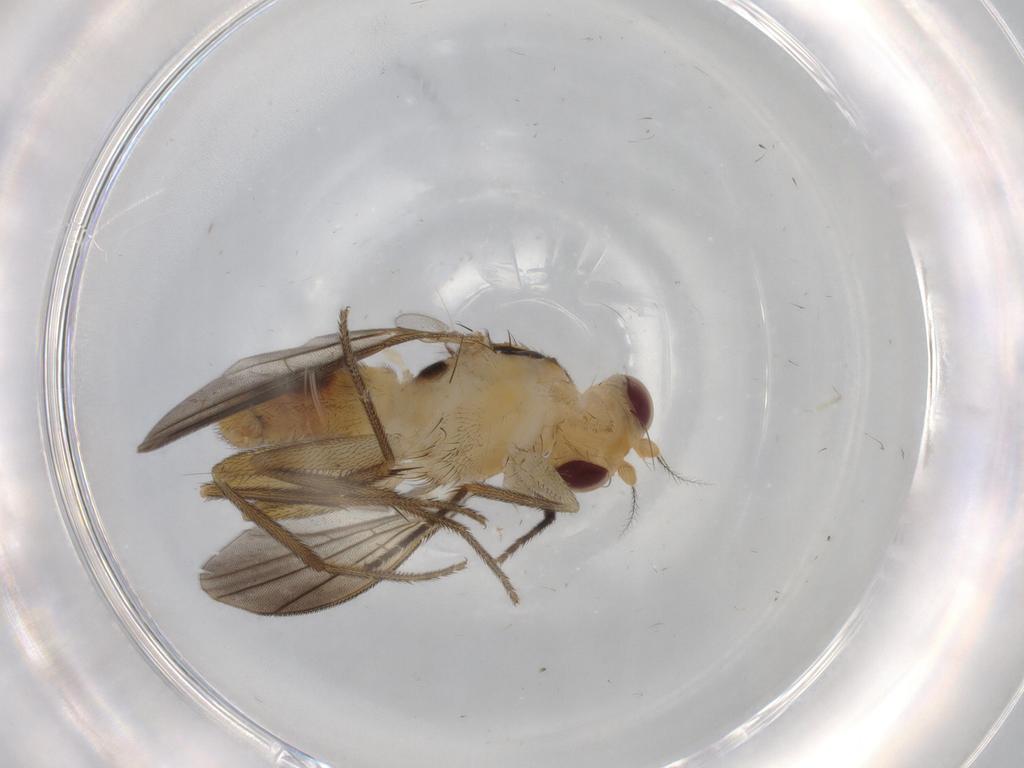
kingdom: Animalia
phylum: Arthropoda
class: Insecta
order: Diptera
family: Clusiidae
